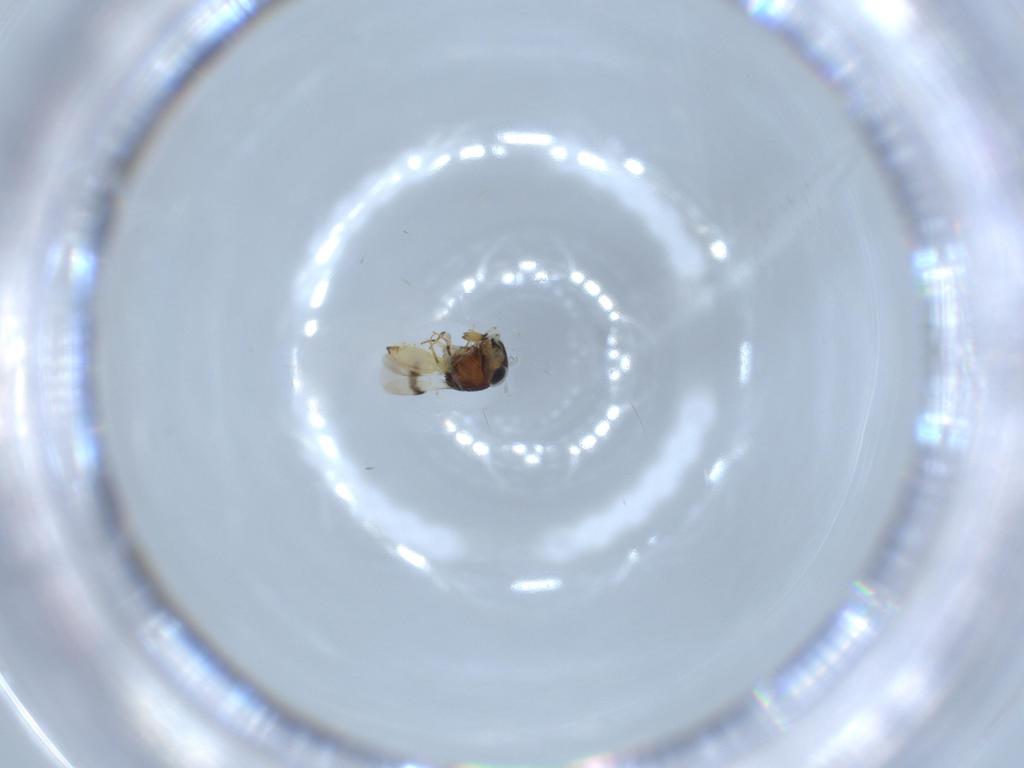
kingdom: Animalia
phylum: Arthropoda
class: Insecta
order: Hymenoptera
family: Scelionidae
